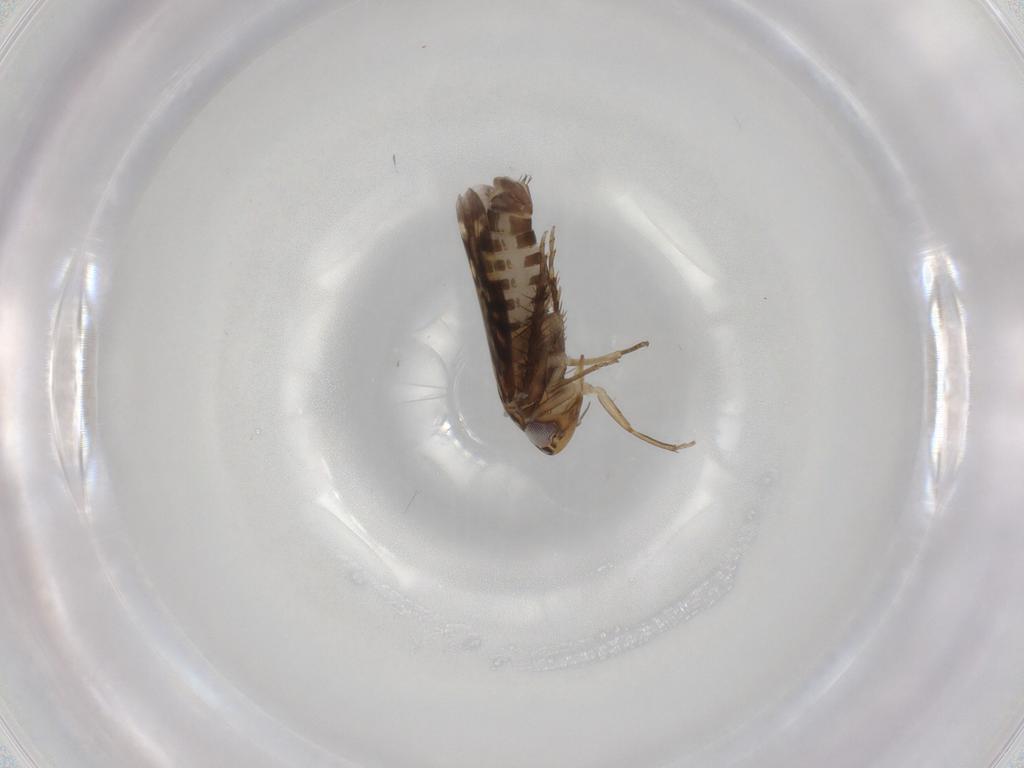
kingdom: Animalia
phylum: Arthropoda
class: Insecta
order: Hemiptera
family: Cicadellidae
